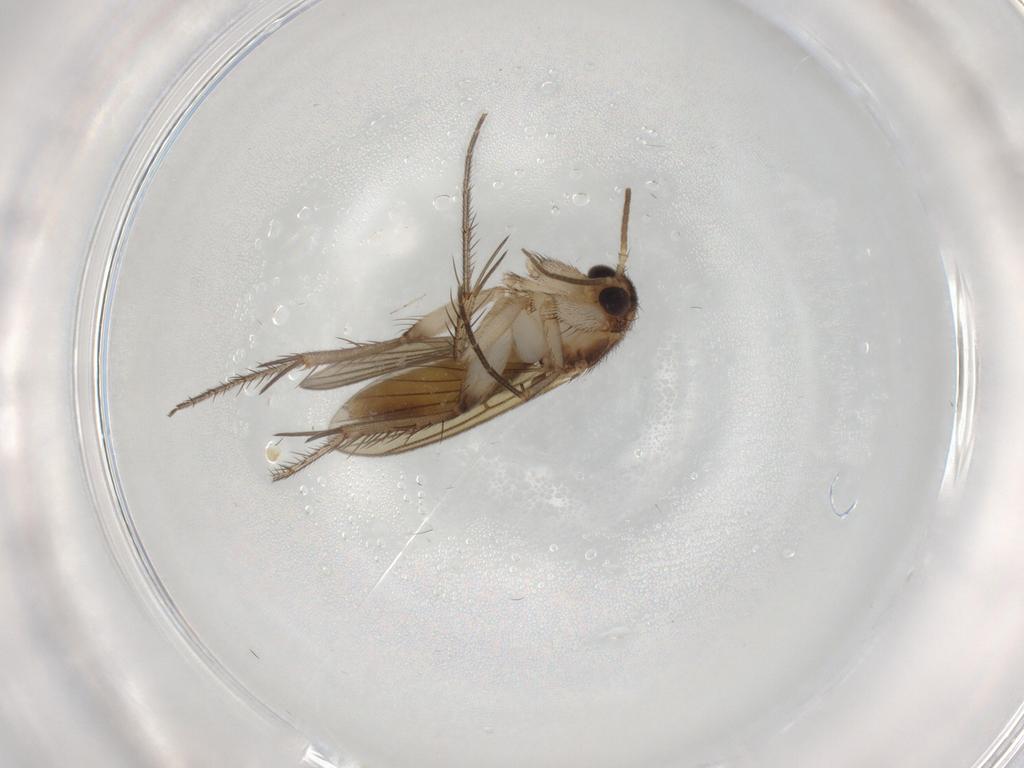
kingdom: Animalia
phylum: Arthropoda
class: Insecta
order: Diptera
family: Mycetophilidae
